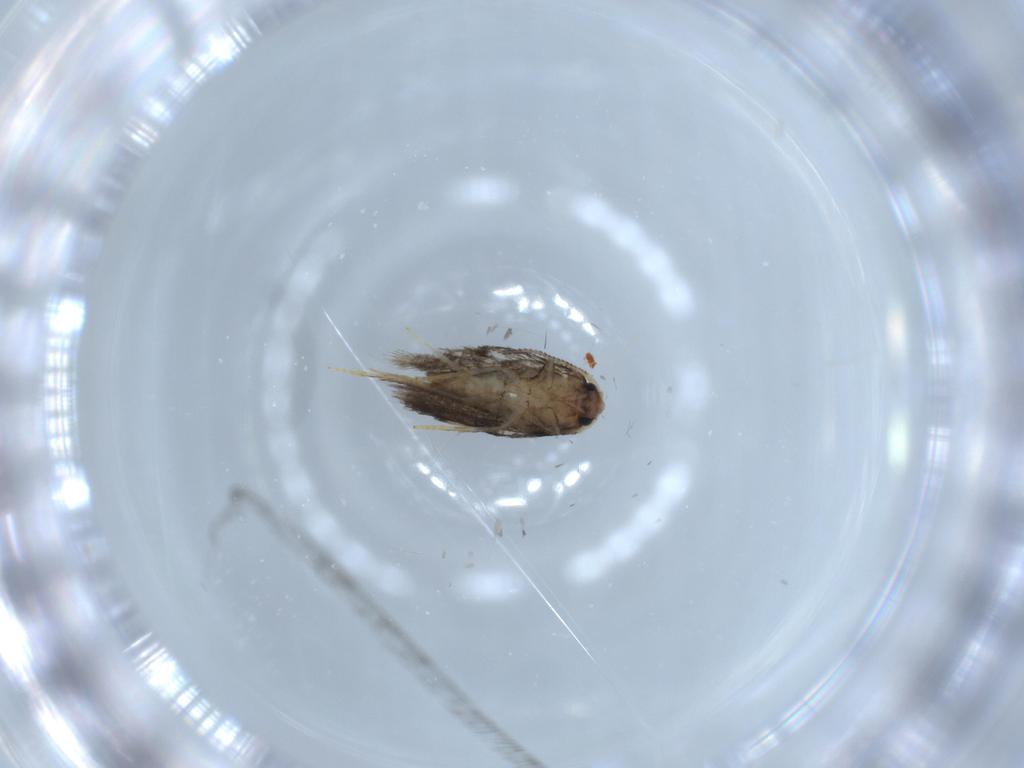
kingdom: Animalia
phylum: Arthropoda
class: Insecta
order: Lepidoptera
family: Nepticulidae
